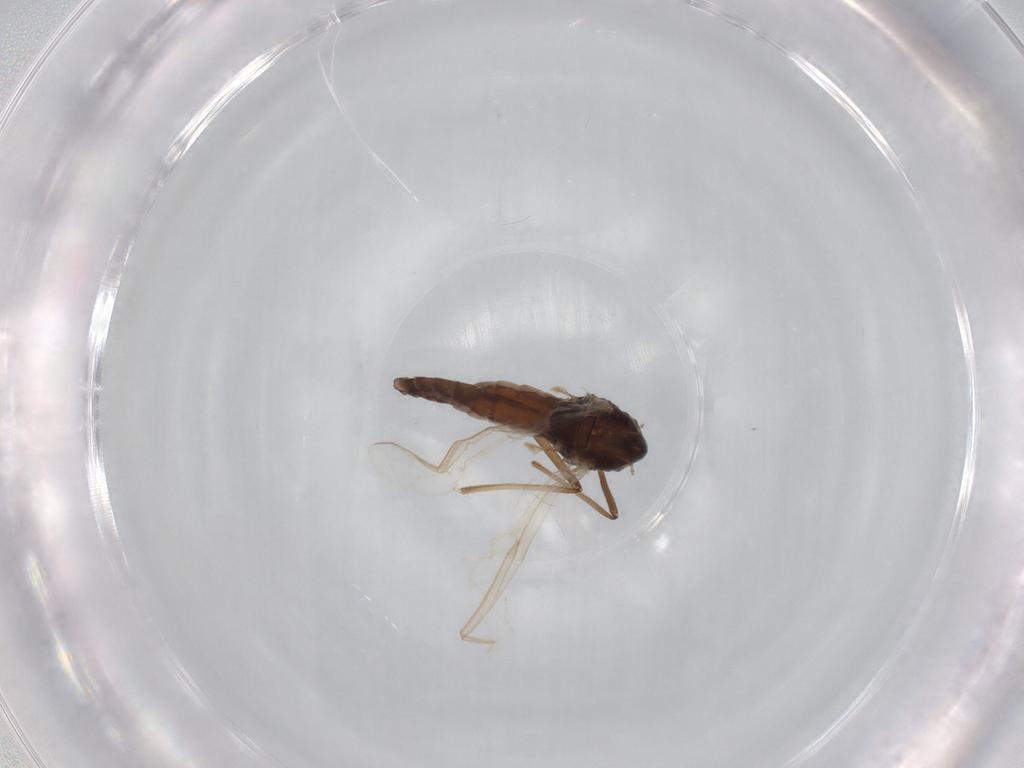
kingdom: Animalia
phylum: Arthropoda
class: Insecta
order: Diptera
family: Chironomidae
